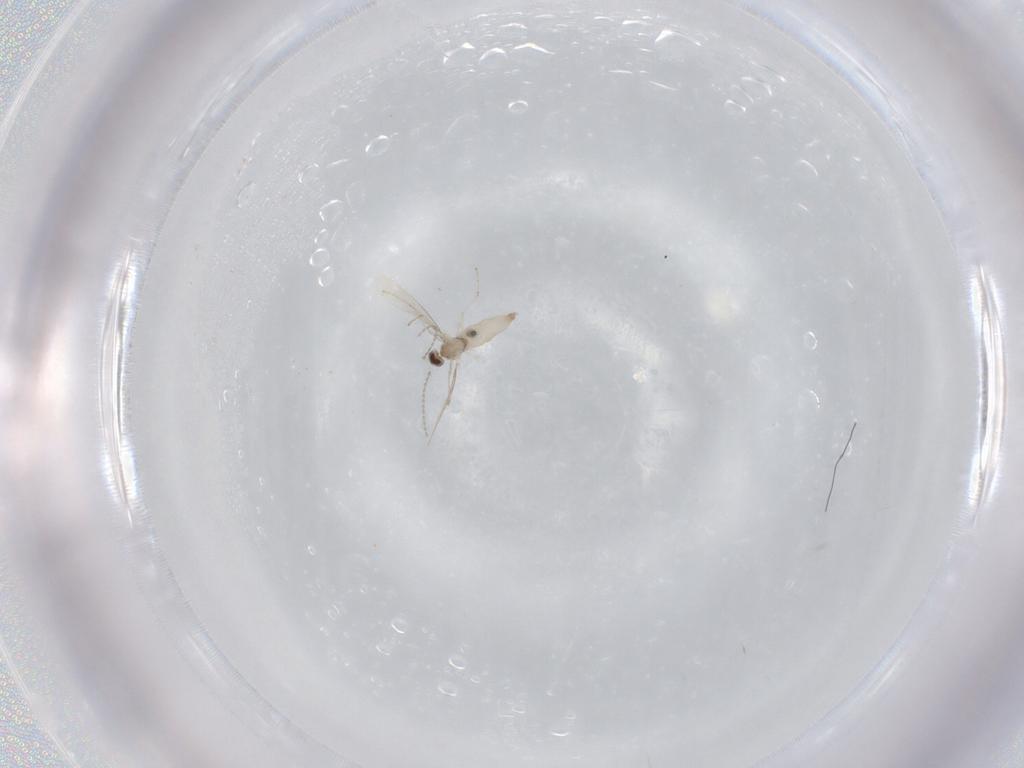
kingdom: Animalia
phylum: Arthropoda
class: Insecta
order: Diptera
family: Cecidomyiidae
